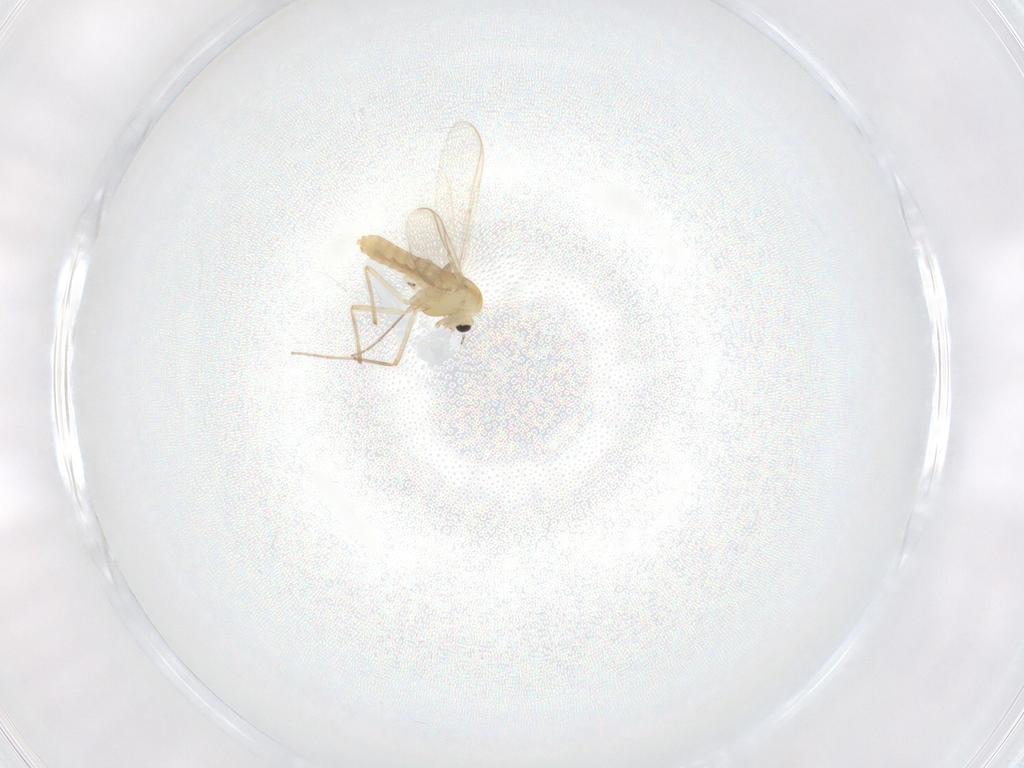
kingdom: Animalia
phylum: Arthropoda
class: Insecta
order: Diptera
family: Chironomidae
